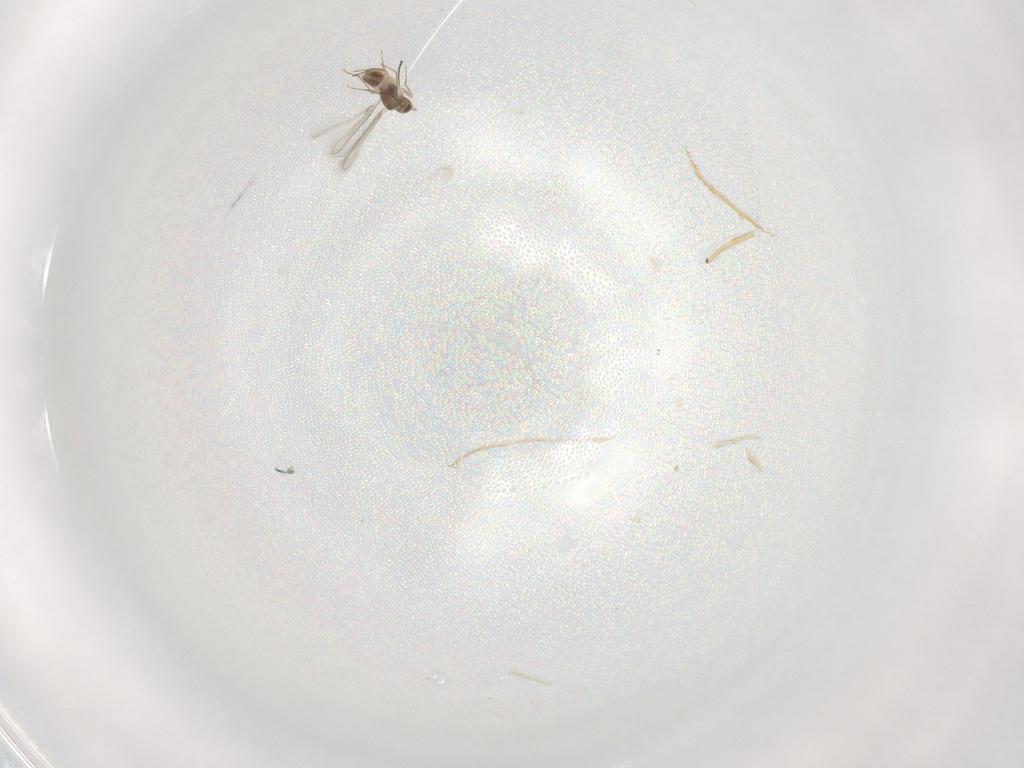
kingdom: Animalia
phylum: Arthropoda
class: Insecta
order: Hymenoptera
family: Mymaridae
